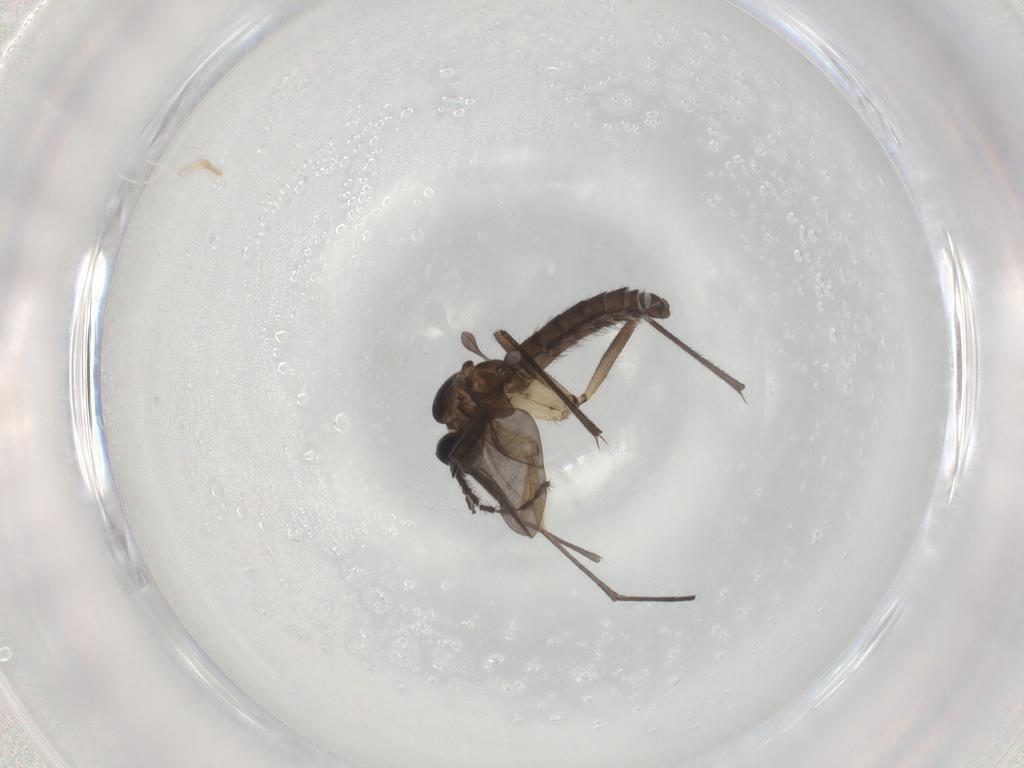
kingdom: Animalia
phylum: Arthropoda
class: Insecta
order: Diptera
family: Sciaridae
